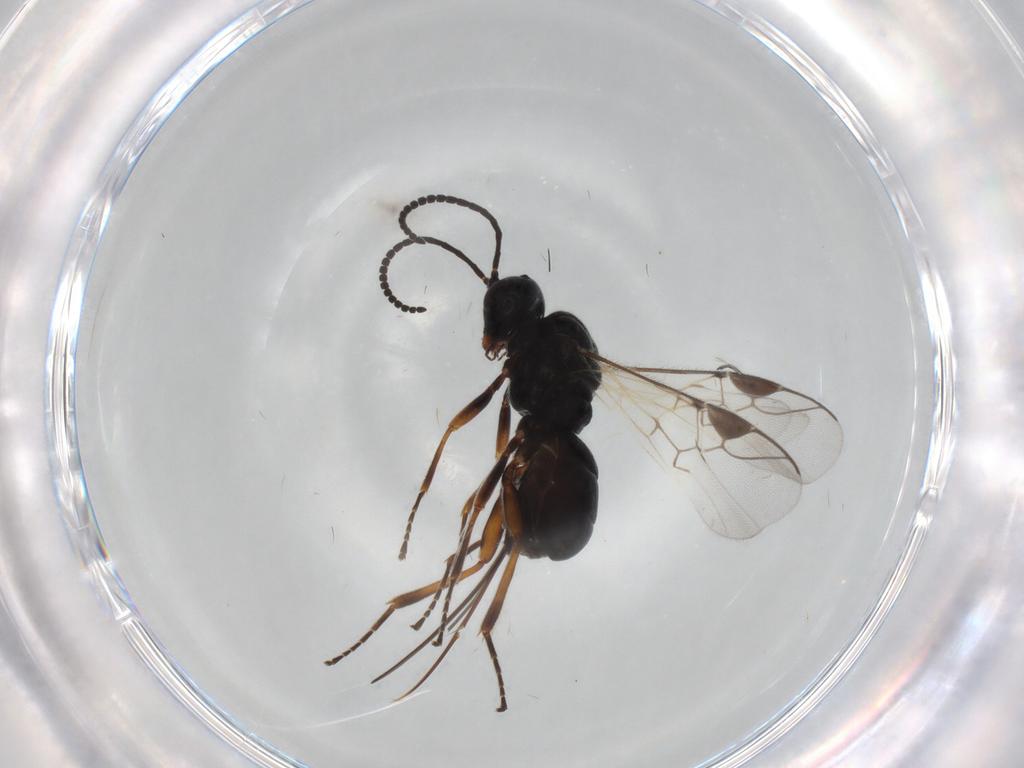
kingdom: Animalia
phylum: Arthropoda
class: Insecta
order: Hymenoptera
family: Braconidae
